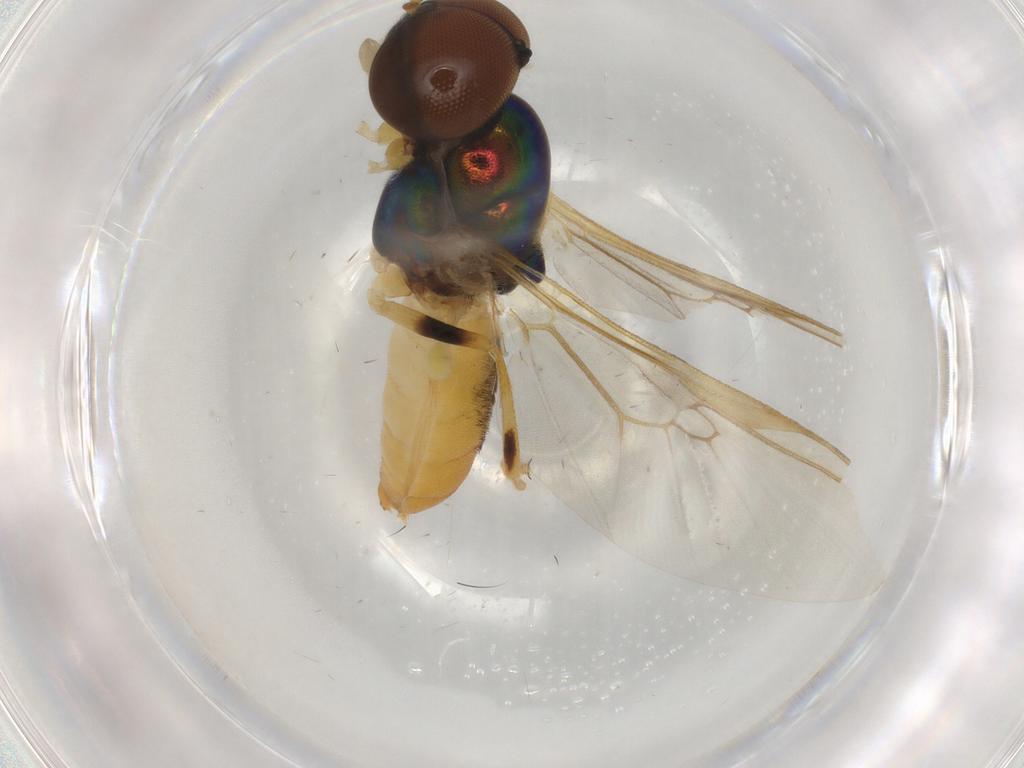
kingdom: Animalia
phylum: Arthropoda
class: Insecta
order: Diptera
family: Ephydridae
